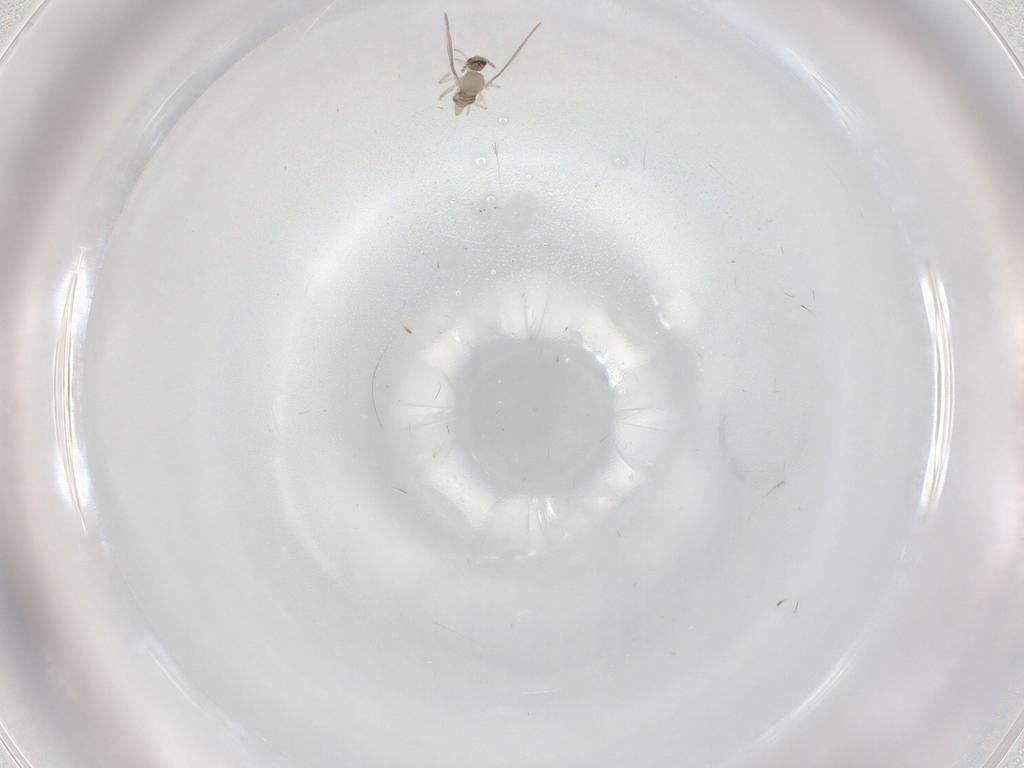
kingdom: Animalia
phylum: Arthropoda
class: Insecta
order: Diptera
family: Cecidomyiidae
